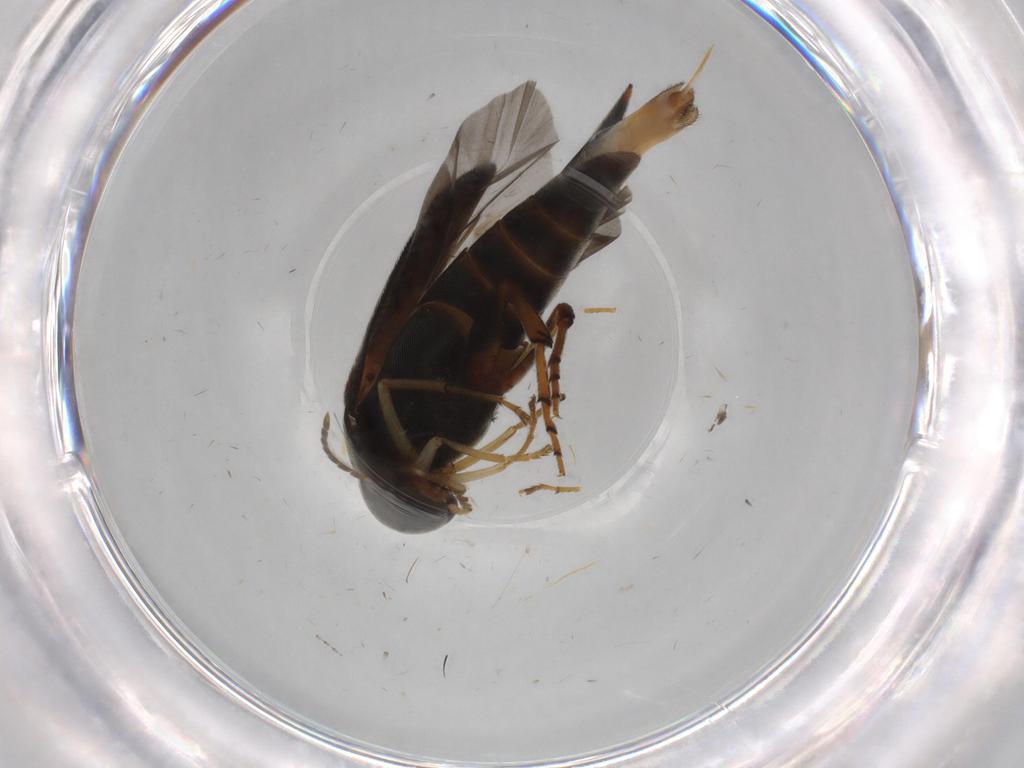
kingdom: Animalia
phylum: Arthropoda
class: Insecta
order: Coleoptera
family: Mordellidae
